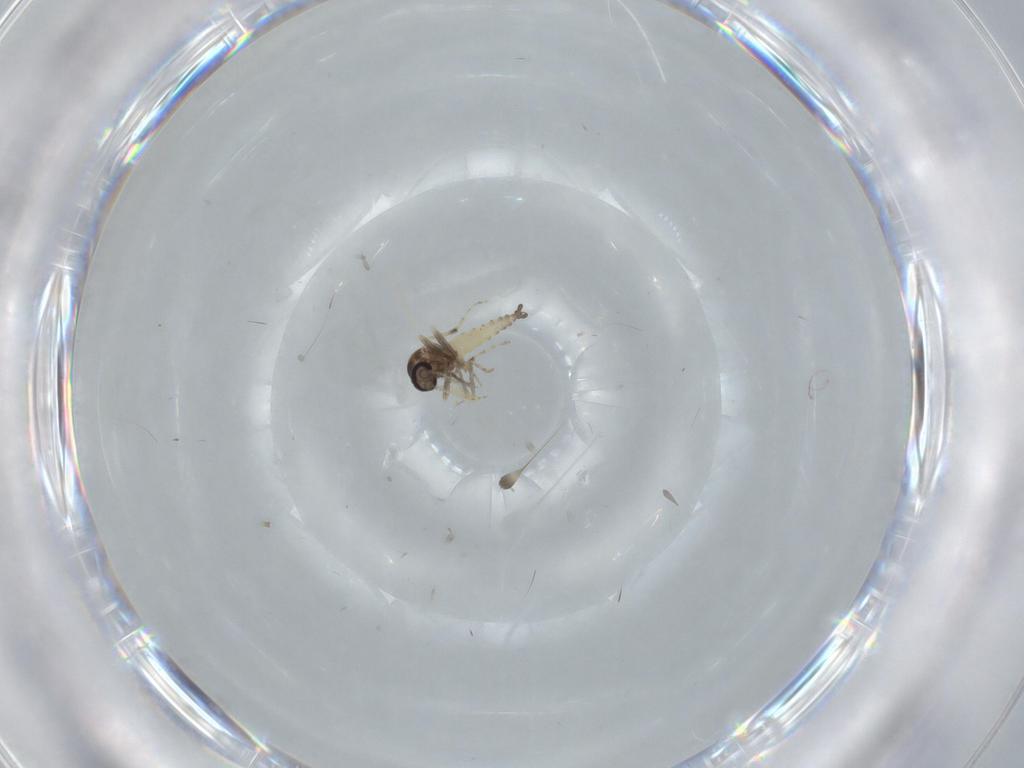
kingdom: Animalia
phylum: Arthropoda
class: Insecta
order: Diptera
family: Ceratopogonidae
